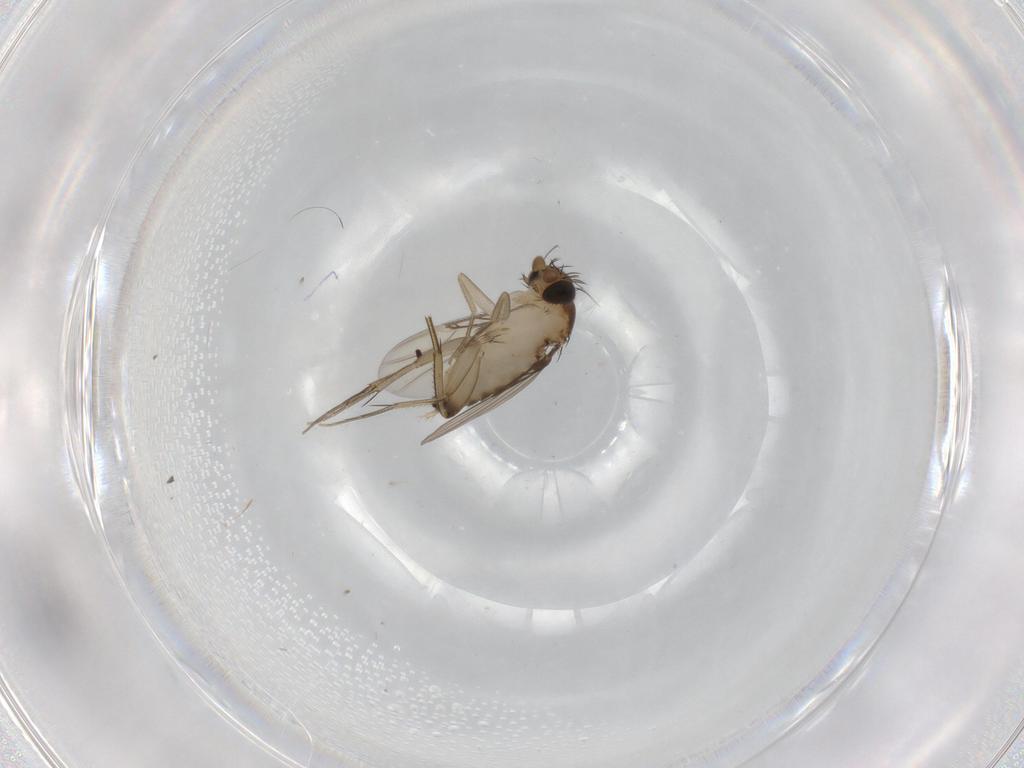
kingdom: Animalia
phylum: Arthropoda
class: Insecta
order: Diptera
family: Phoridae
